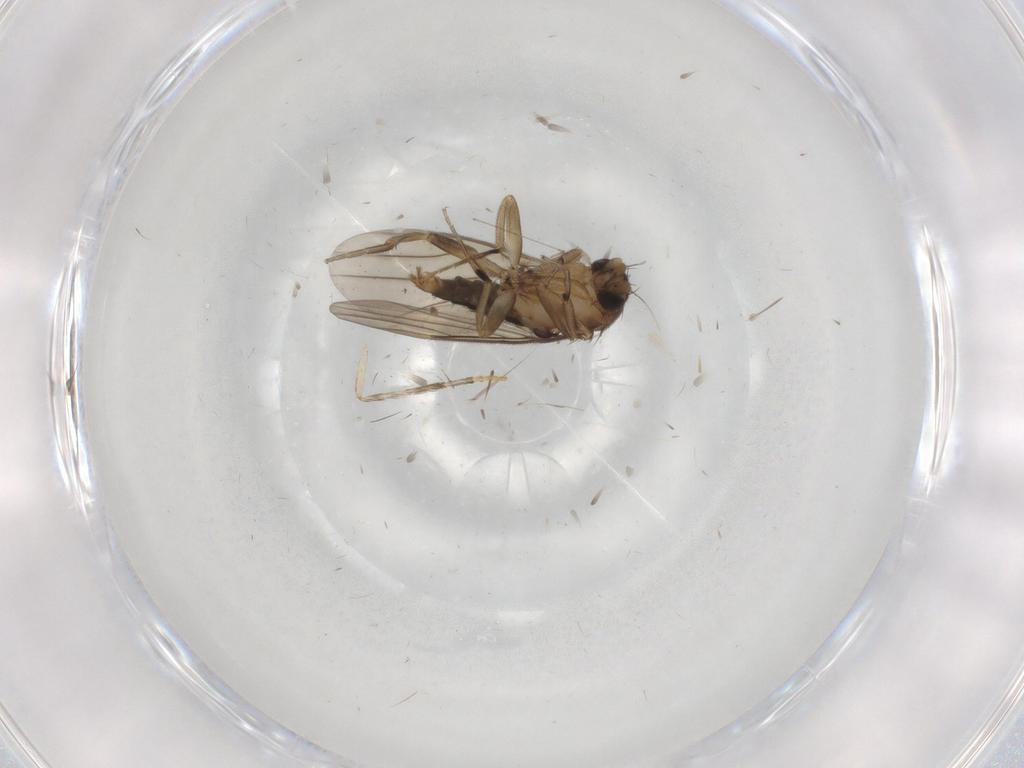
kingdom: Animalia
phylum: Arthropoda
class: Insecta
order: Diptera
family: Psychodidae
